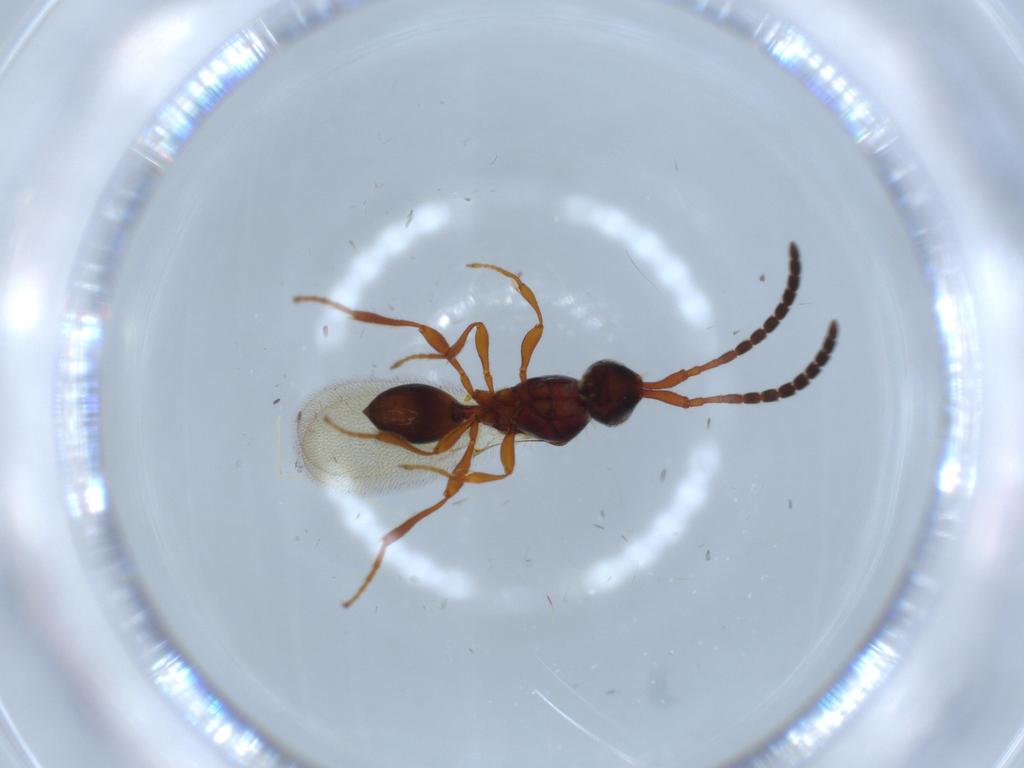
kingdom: Animalia
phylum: Arthropoda
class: Insecta
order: Hymenoptera
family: Diapriidae
